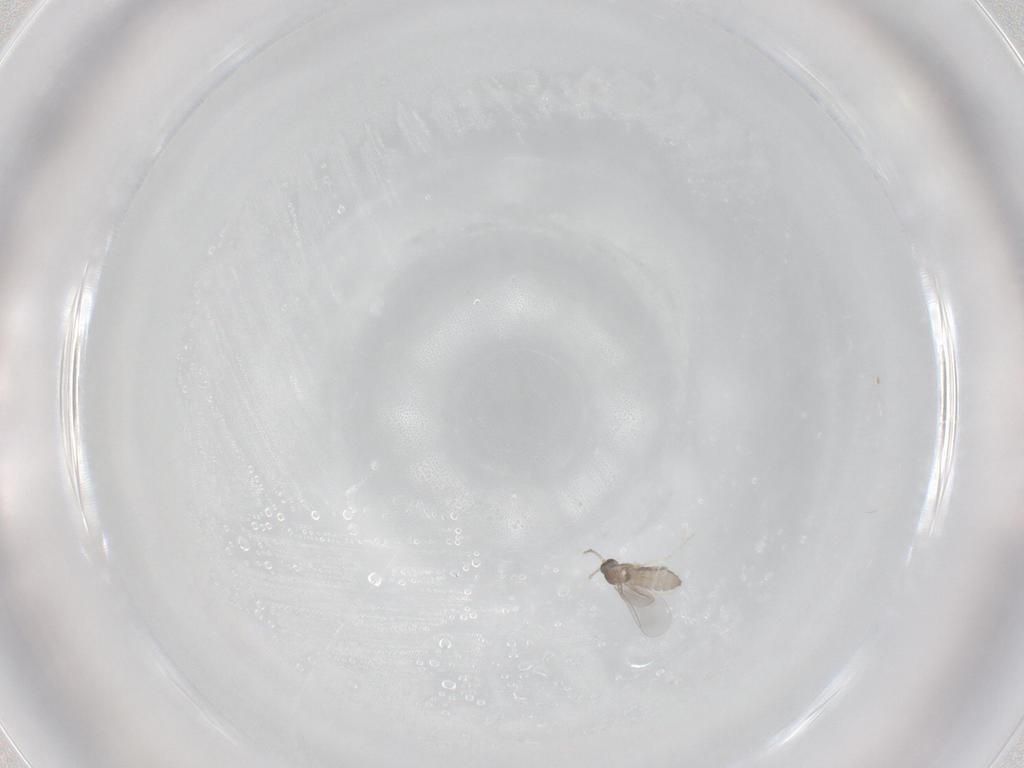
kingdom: Animalia
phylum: Arthropoda
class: Insecta
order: Diptera
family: Cecidomyiidae
